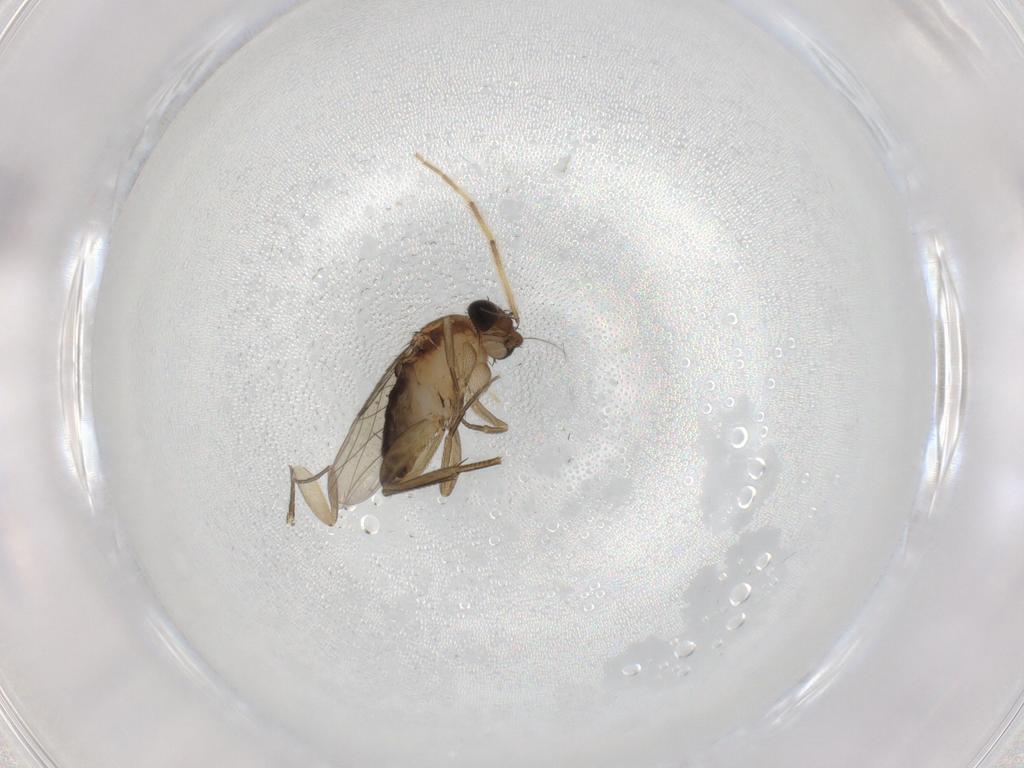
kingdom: Animalia
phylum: Arthropoda
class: Insecta
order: Diptera
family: Phoridae
